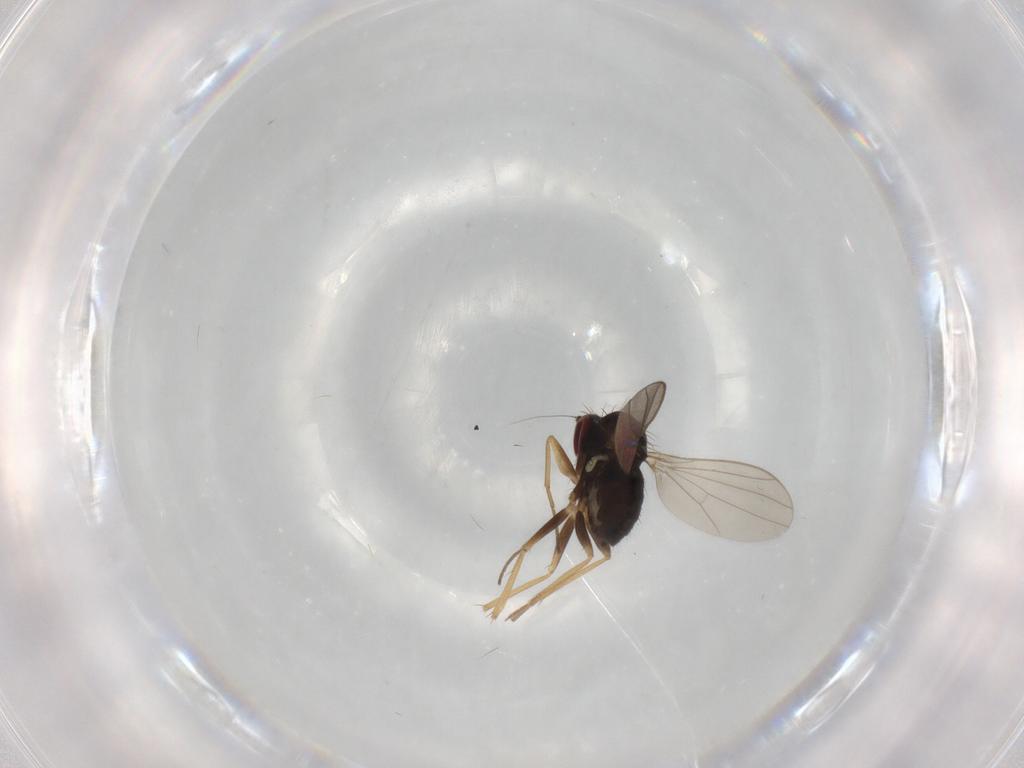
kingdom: Animalia
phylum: Arthropoda
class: Insecta
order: Diptera
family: Dolichopodidae
